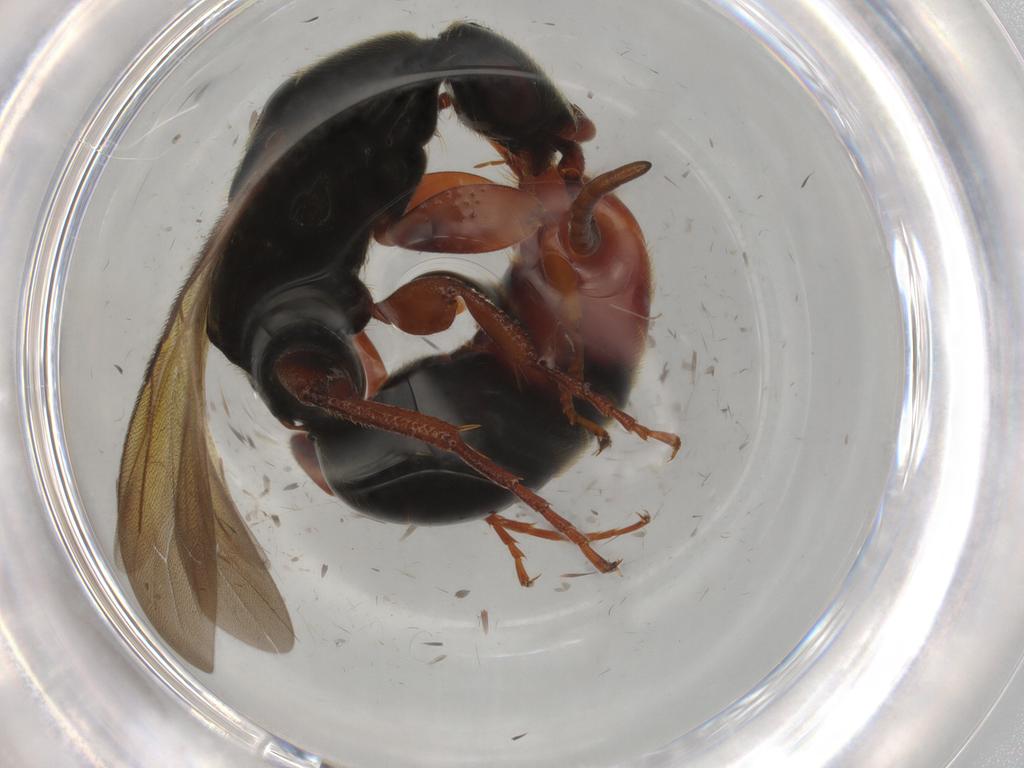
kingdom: Animalia
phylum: Arthropoda
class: Insecta
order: Hymenoptera
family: Bethylidae
